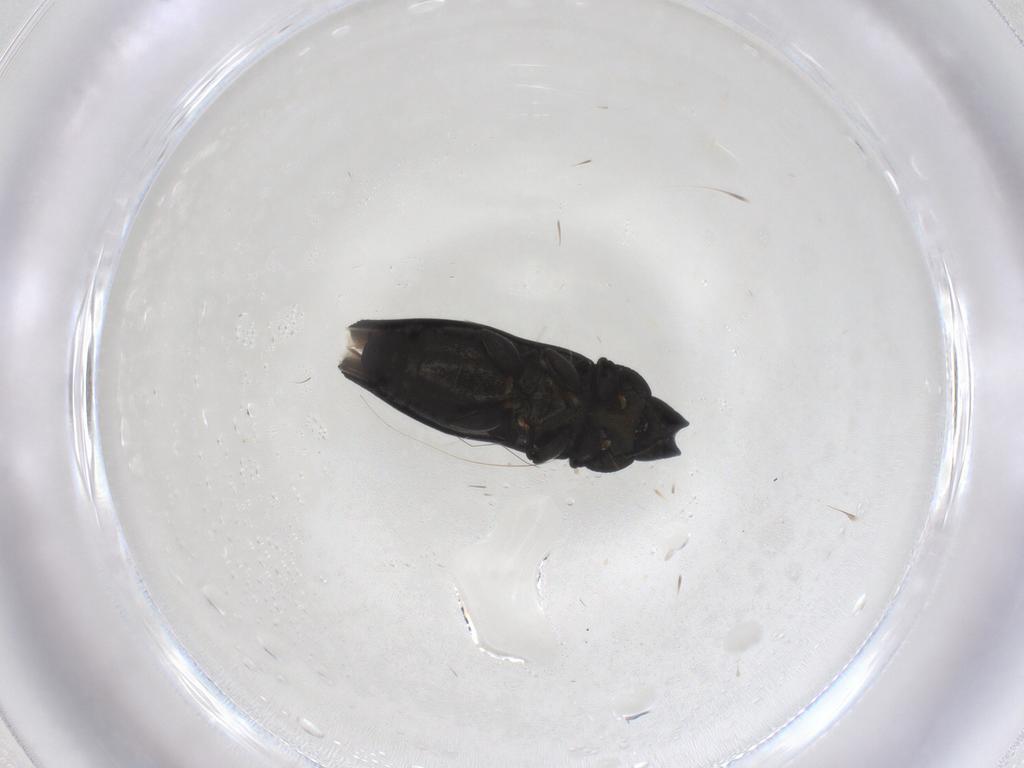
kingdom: Animalia
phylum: Arthropoda
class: Insecta
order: Coleoptera
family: Buprestidae
